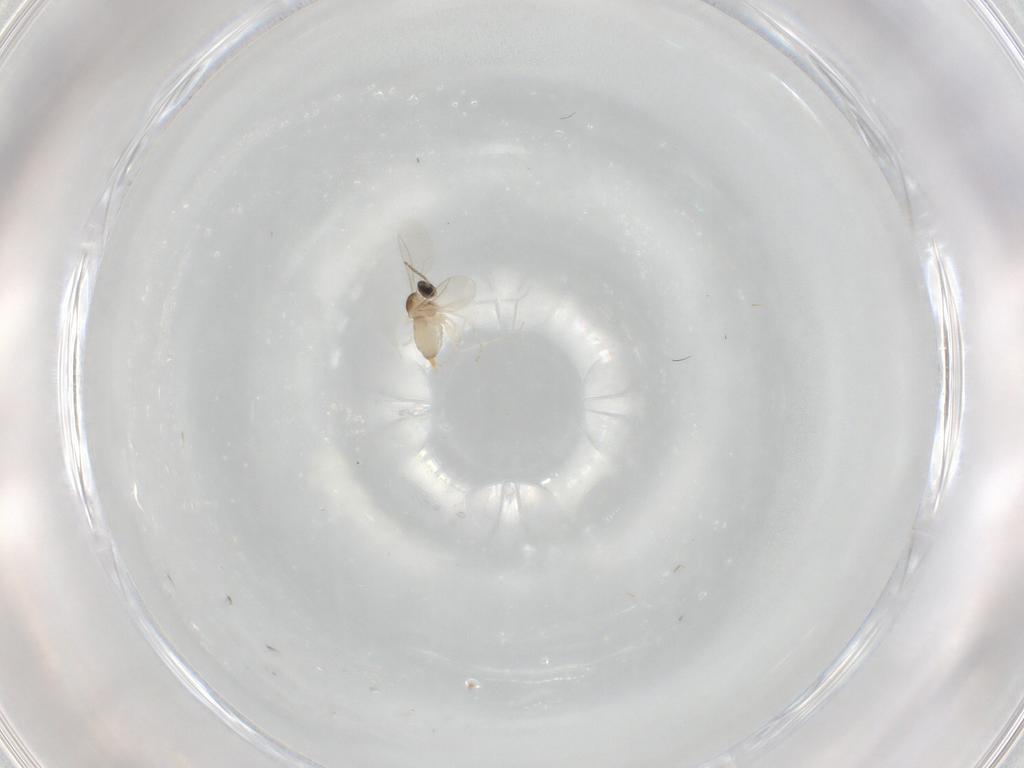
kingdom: Animalia
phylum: Arthropoda
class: Insecta
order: Diptera
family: Cecidomyiidae
